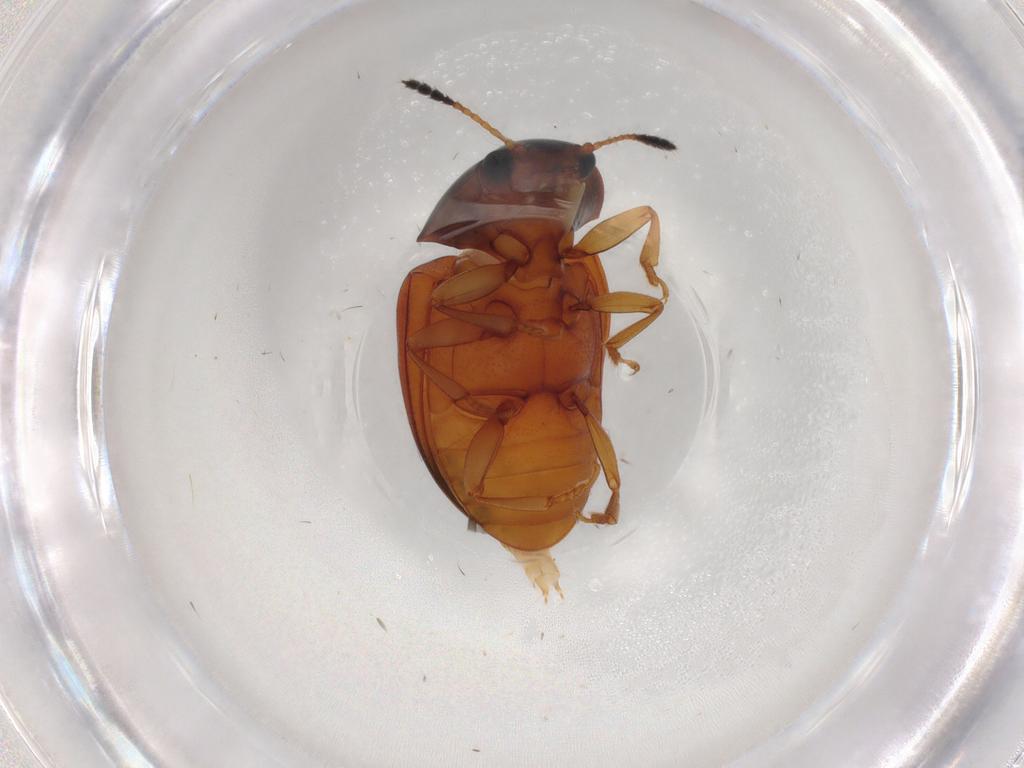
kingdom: Animalia
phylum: Arthropoda
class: Insecta
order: Coleoptera
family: Erotylidae
